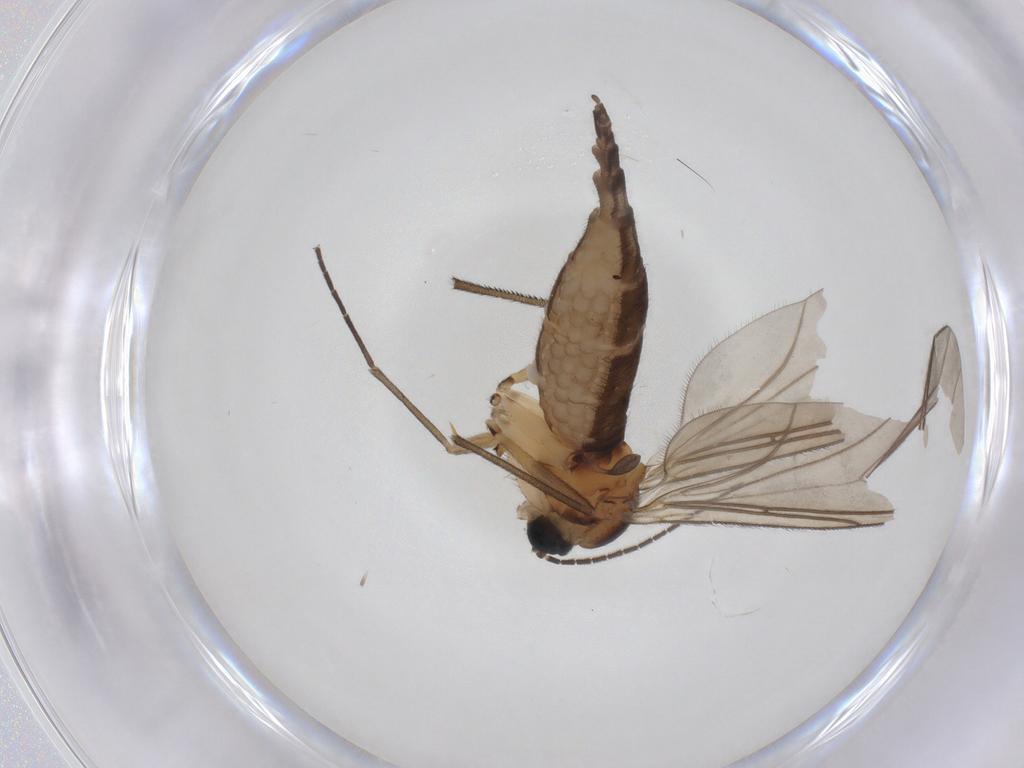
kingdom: Animalia
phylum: Arthropoda
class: Insecta
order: Diptera
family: Sciaridae
